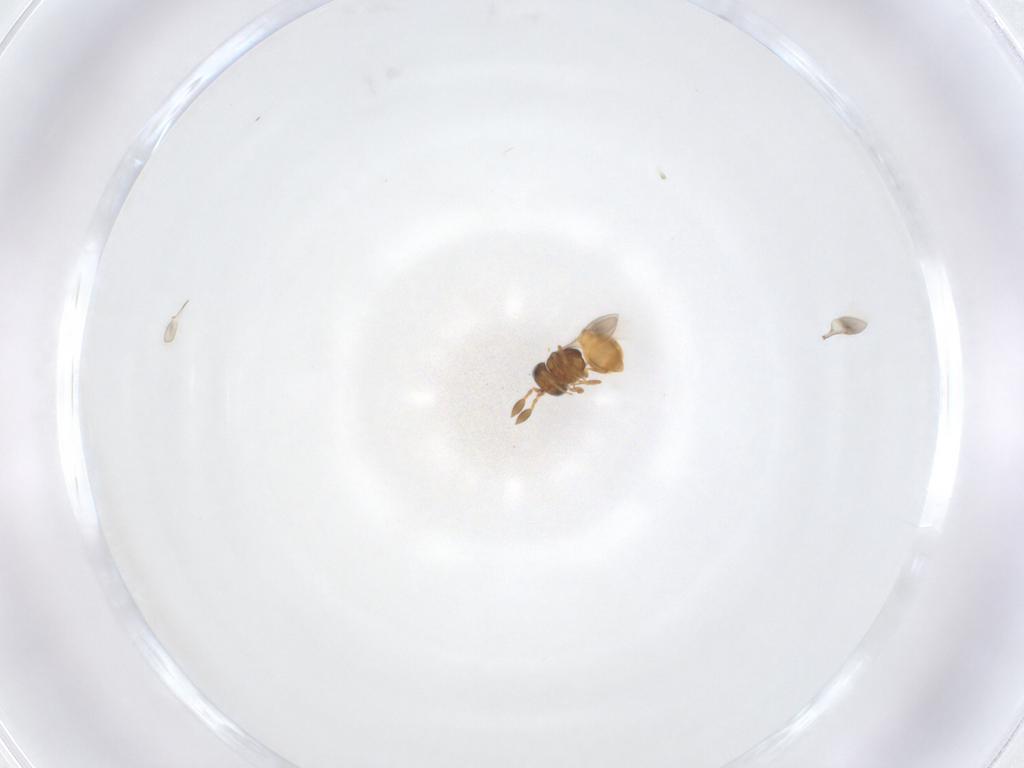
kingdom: Animalia
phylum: Arthropoda
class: Insecta
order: Hymenoptera
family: Scelionidae
